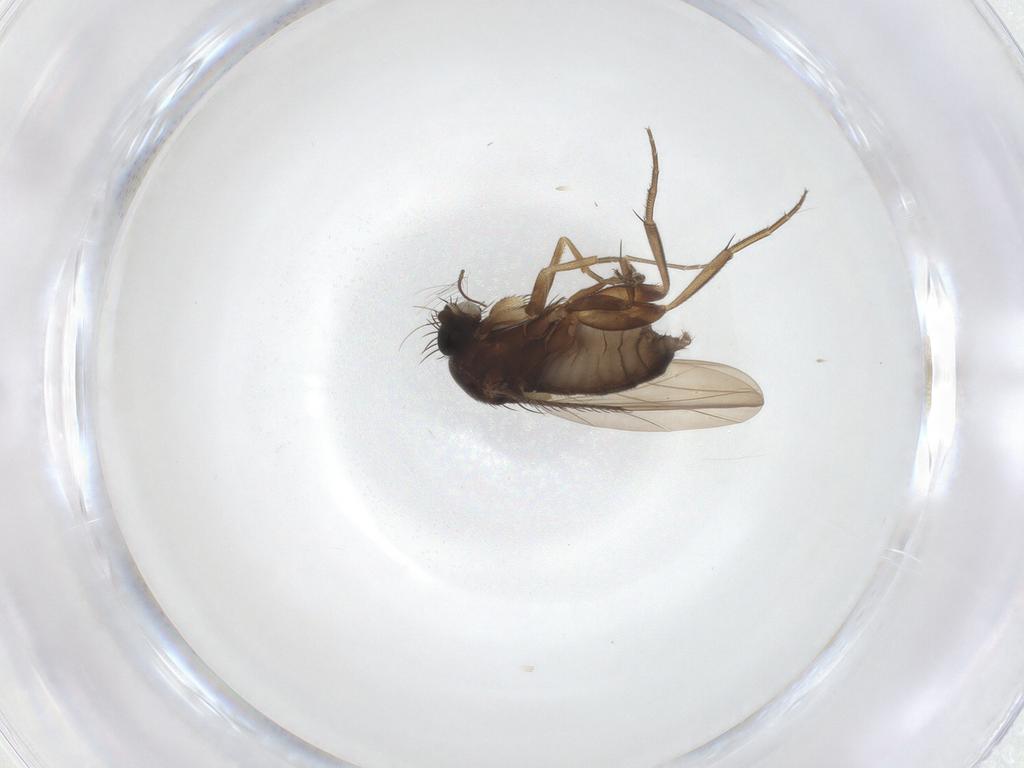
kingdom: Animalia
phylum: Arthropoda
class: Insecta
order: Diptera
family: Phoridae
